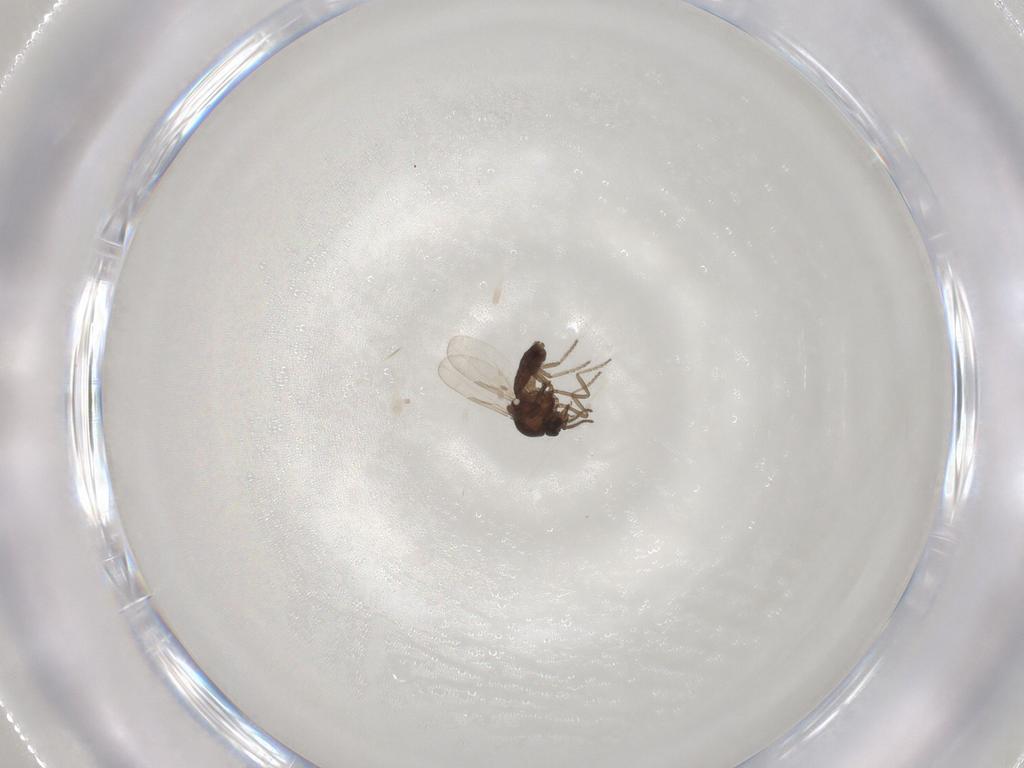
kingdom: Animalia
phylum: Arthropoda
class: Insecta
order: Diptera
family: Ceratopogonidae
